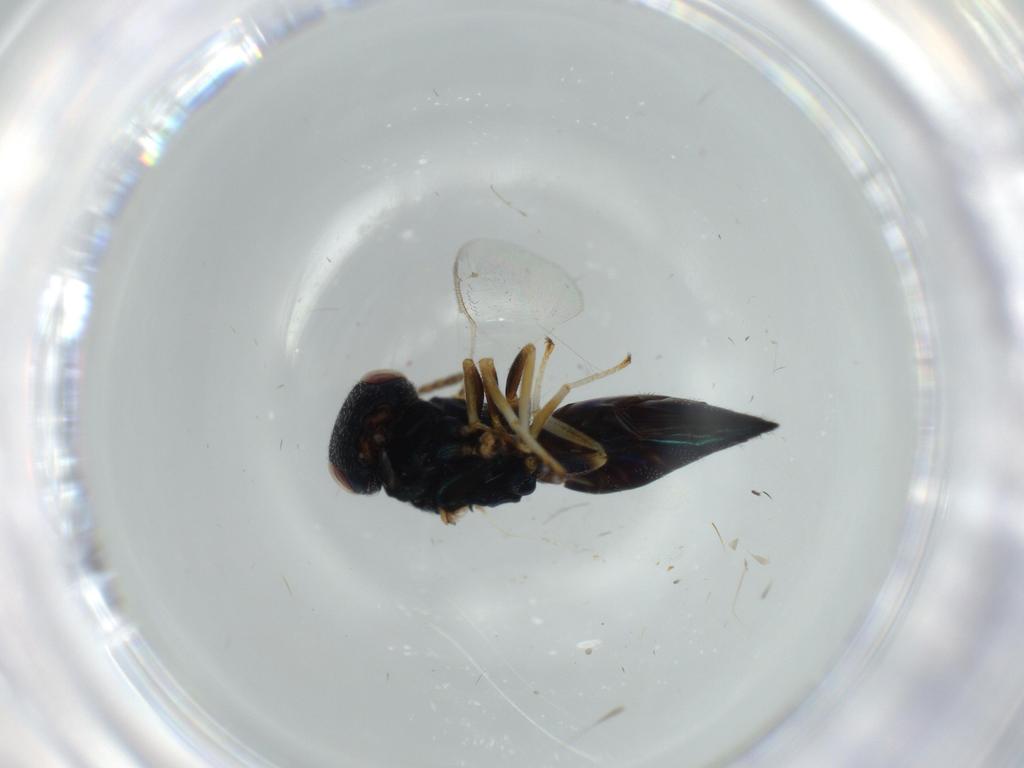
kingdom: Animalia
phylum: Arthropoda
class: Insecta
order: Hymenoptera
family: Pteromalidae
